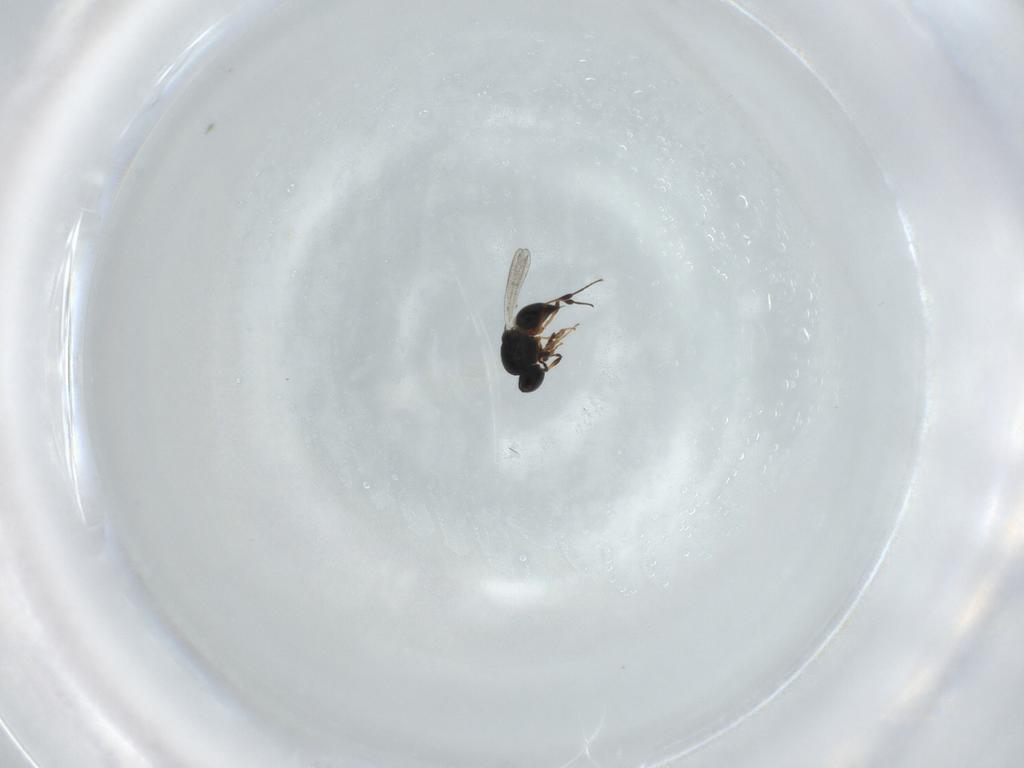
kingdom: Animalia
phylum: Arthropoda
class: Insecta
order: Hymenoptera
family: Platygastridae
